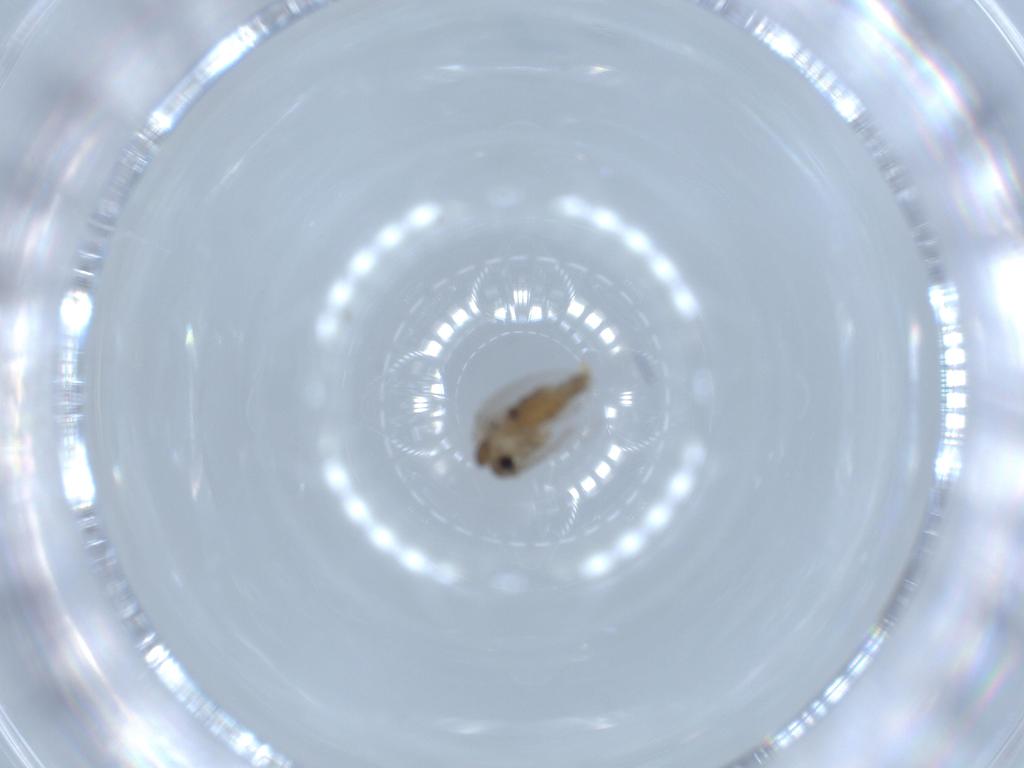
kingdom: Animalia
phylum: Arthropoda
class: Insecta
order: Diptera
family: Psychodidae
